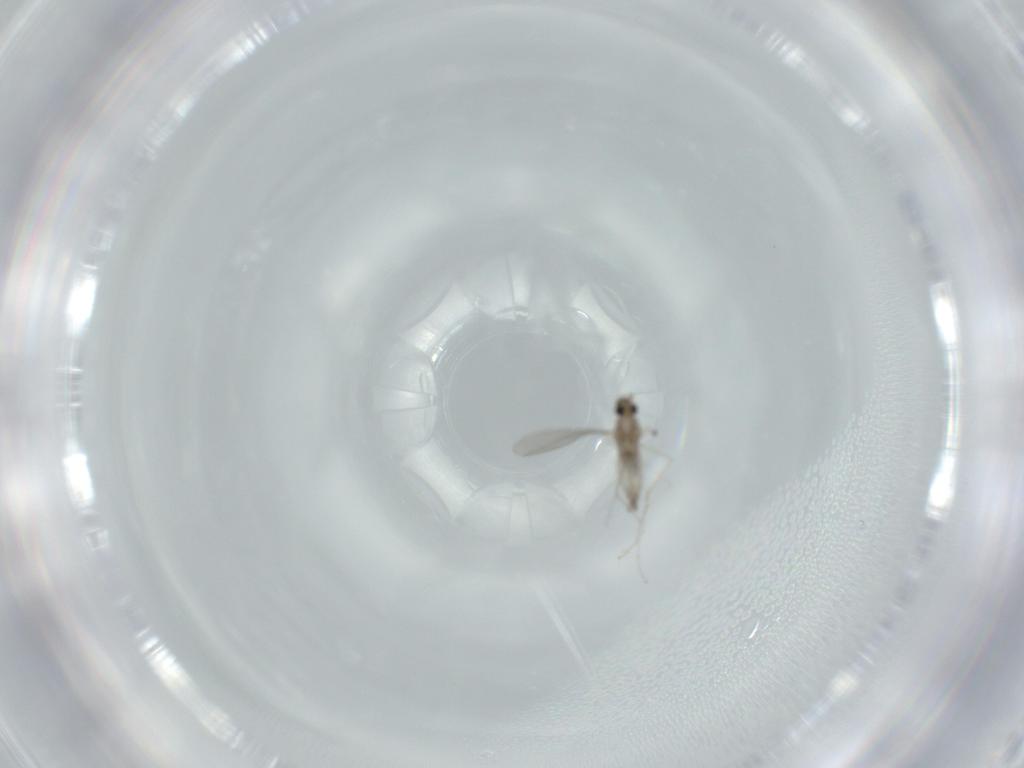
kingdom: Animalia
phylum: Arthropoda
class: Insecta
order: Diptera
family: Cecidomyiidae
